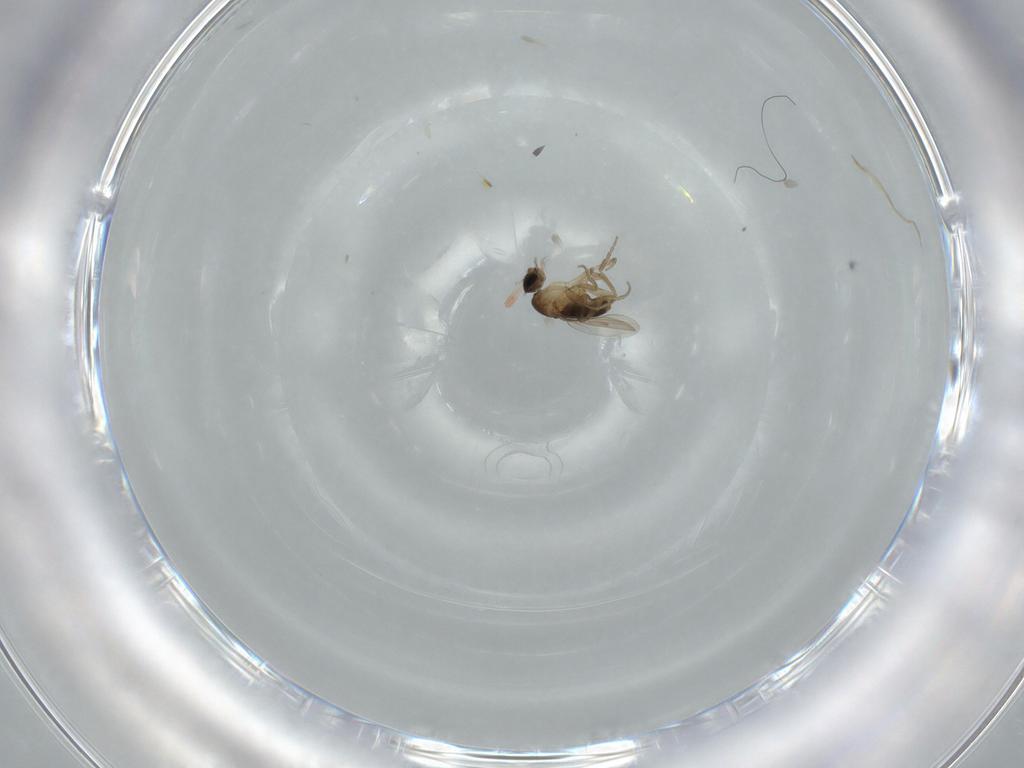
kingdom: Animalia
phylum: Arthropoda
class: Insecta
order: Diptera
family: Phoridae
